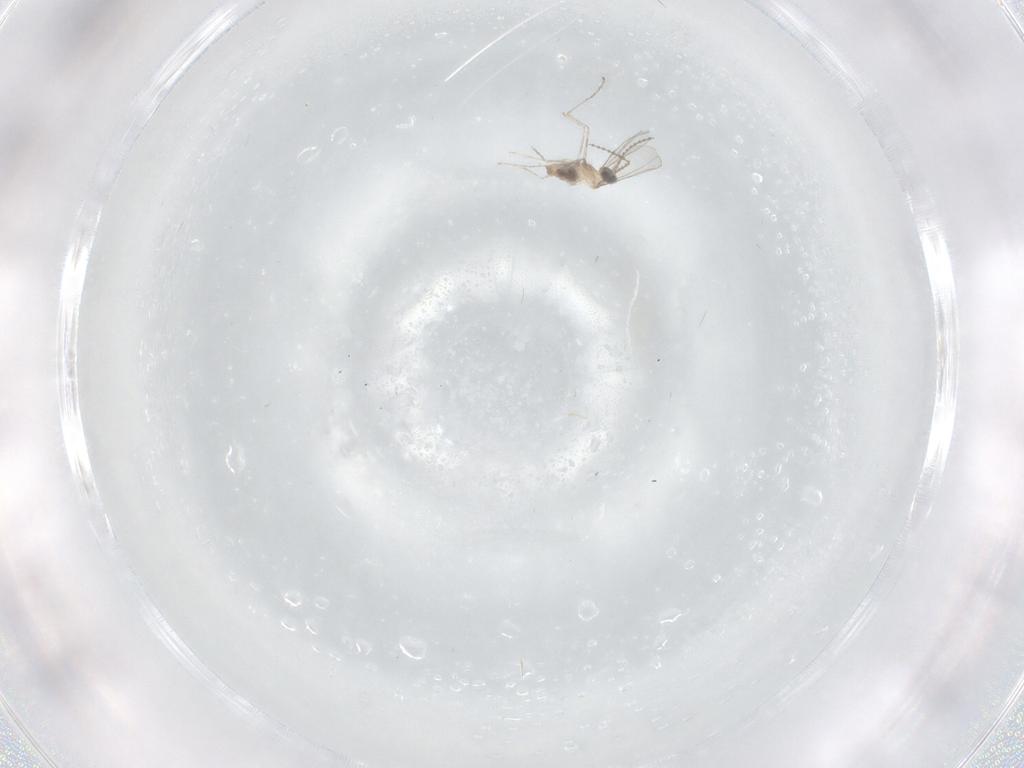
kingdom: Animalia
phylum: Arthropoda
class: Insecta
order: Diptera
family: Cecidomyiidae
